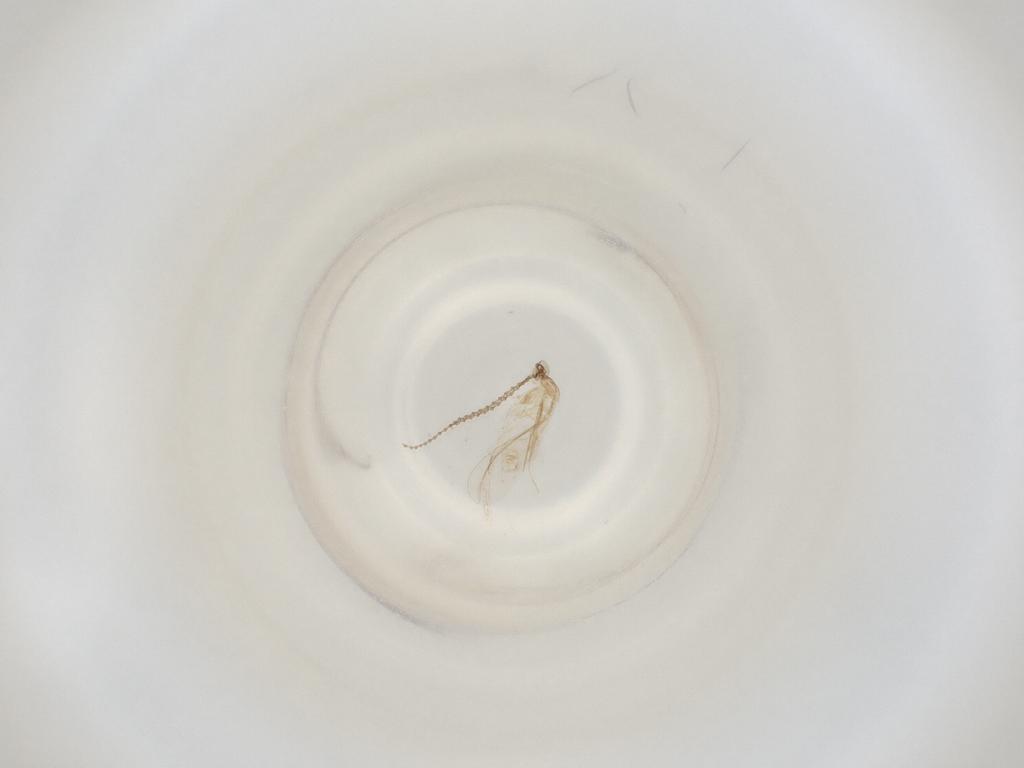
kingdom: Animalia
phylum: Arthropoda
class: Insecta
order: Diptera
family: Cecidomyiidae
